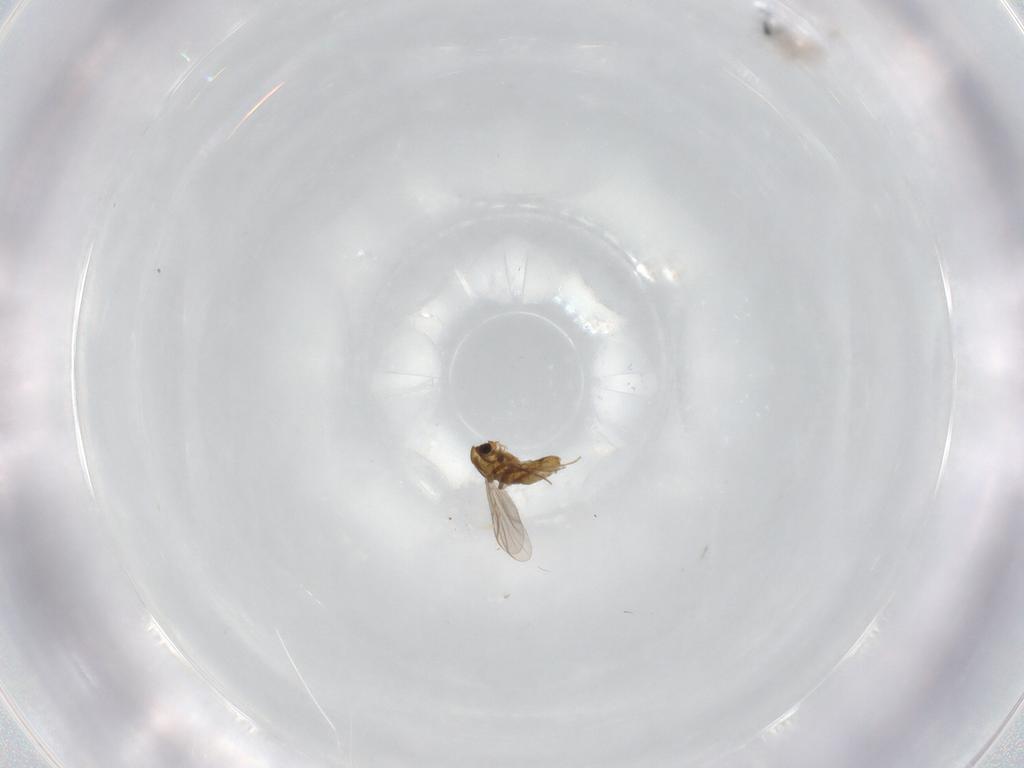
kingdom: Animalia
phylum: Arthropoda
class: Insecta
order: Diptera
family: Chironomidae
